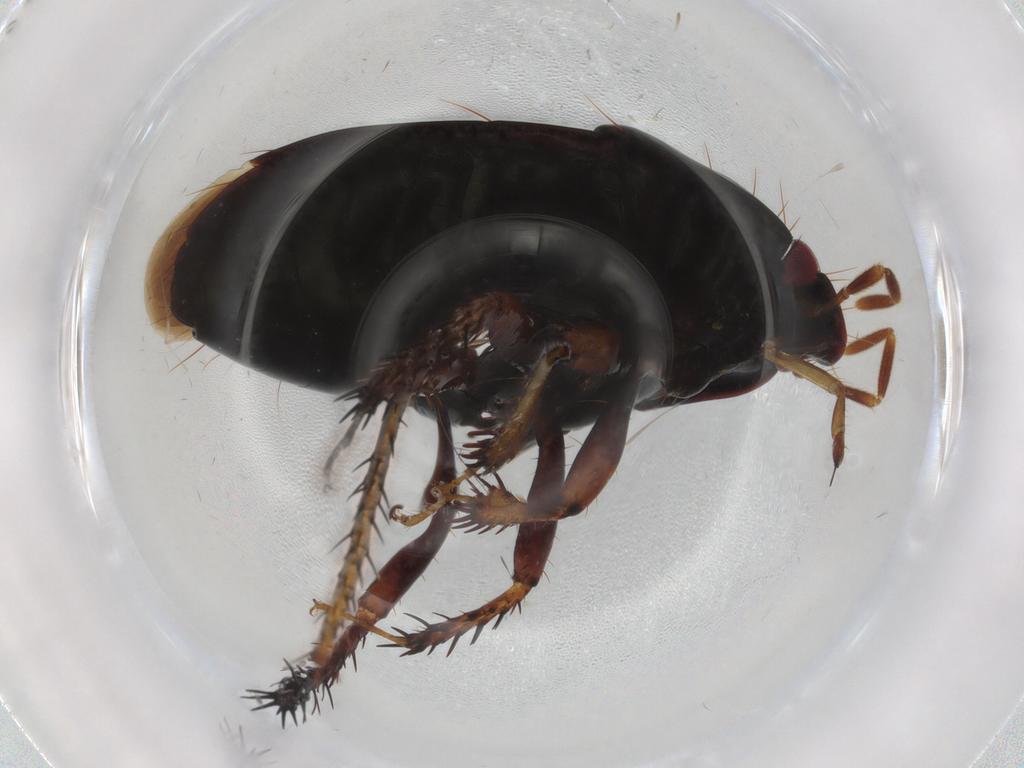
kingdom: Animalia
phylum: Arthropoda
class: Insecta
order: Hemiptera
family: Cydnidae
